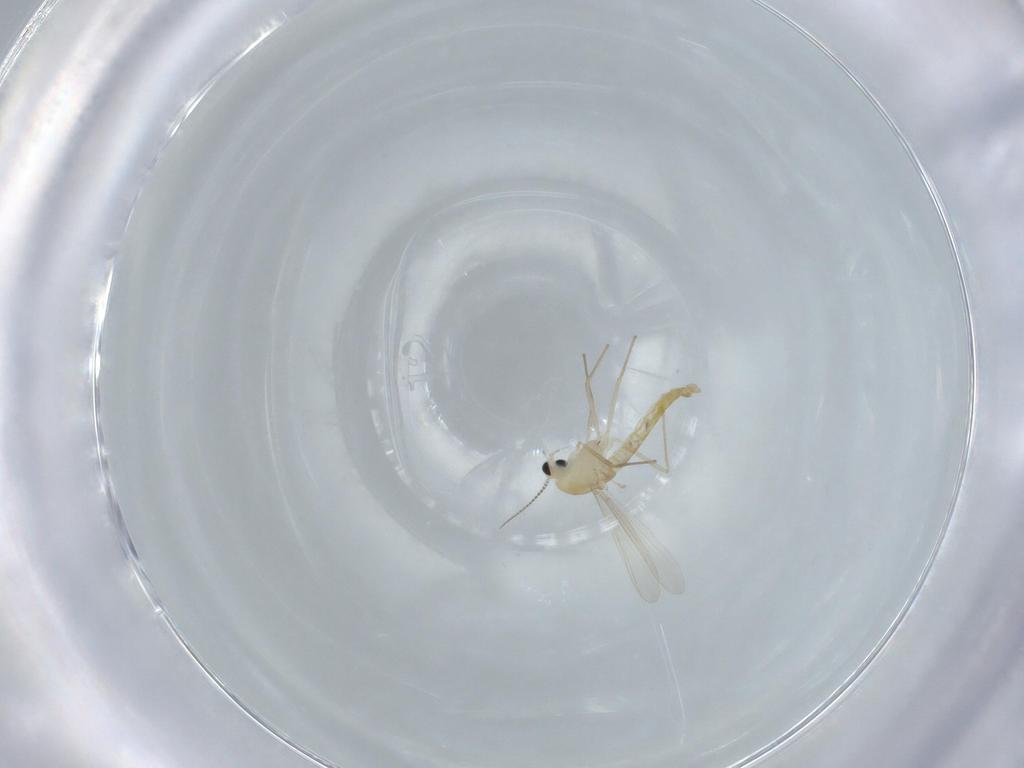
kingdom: Animalia
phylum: Arthropoda
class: Insecta
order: Diptera
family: Chironomidae
